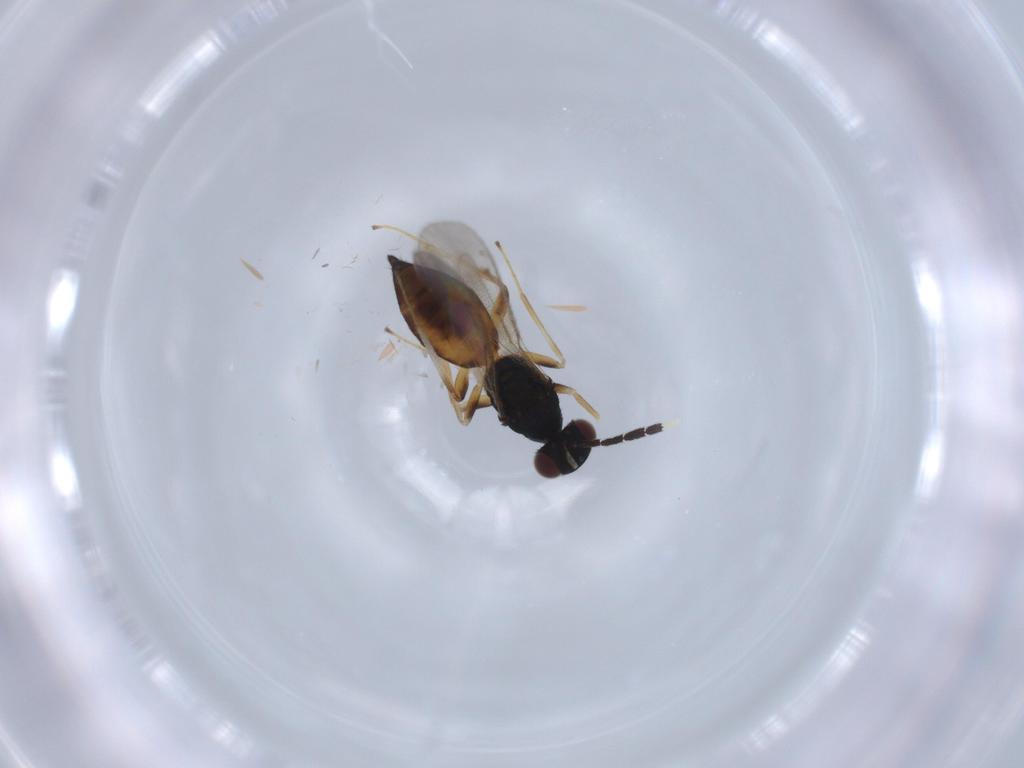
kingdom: Animalia
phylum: Arthropoda
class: Insecta
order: Hymenoptera
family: Eulophidae
